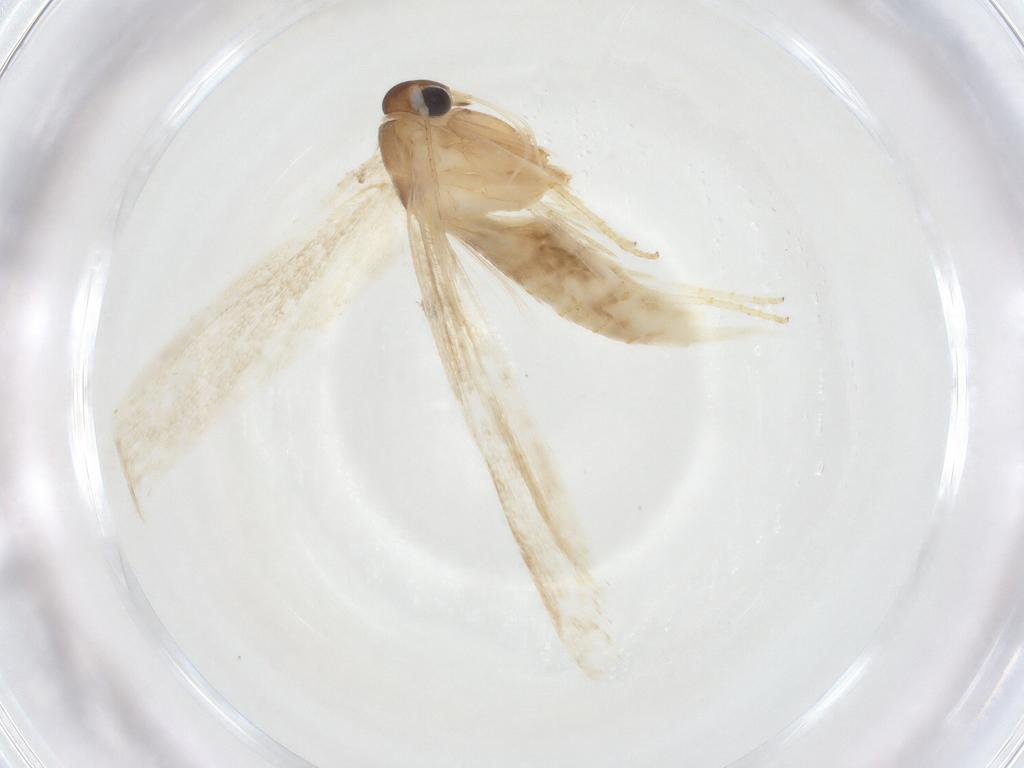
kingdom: Animalia
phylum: Arthropoda
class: Insecta
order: Lepidoptera
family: Blastobasidae
